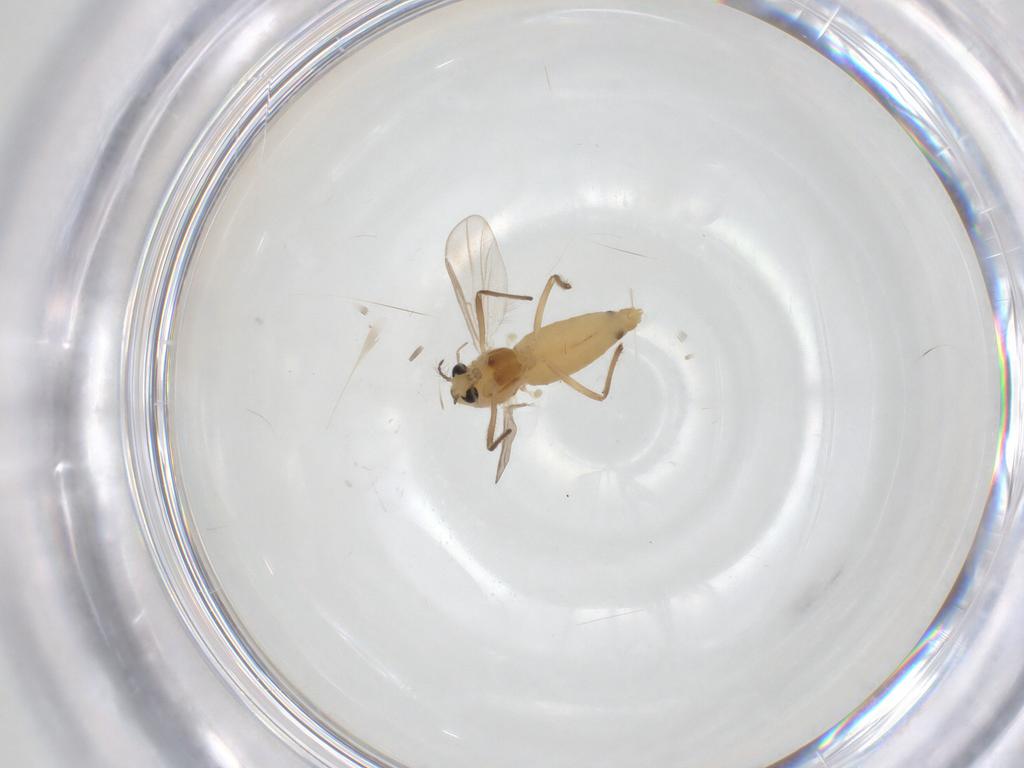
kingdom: Animalia
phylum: Arthropoda
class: Insecta
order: Diptera
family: Chironomidae
